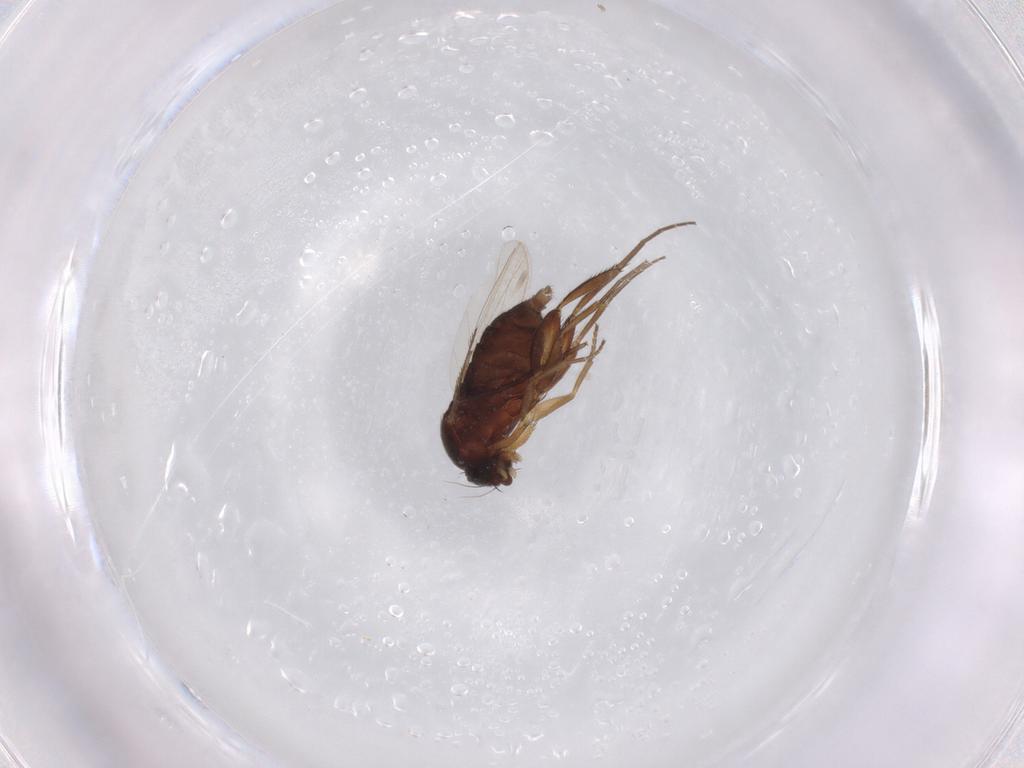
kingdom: Animalia
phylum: Arthropoda
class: Insecta
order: Diptera
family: Phoridae
